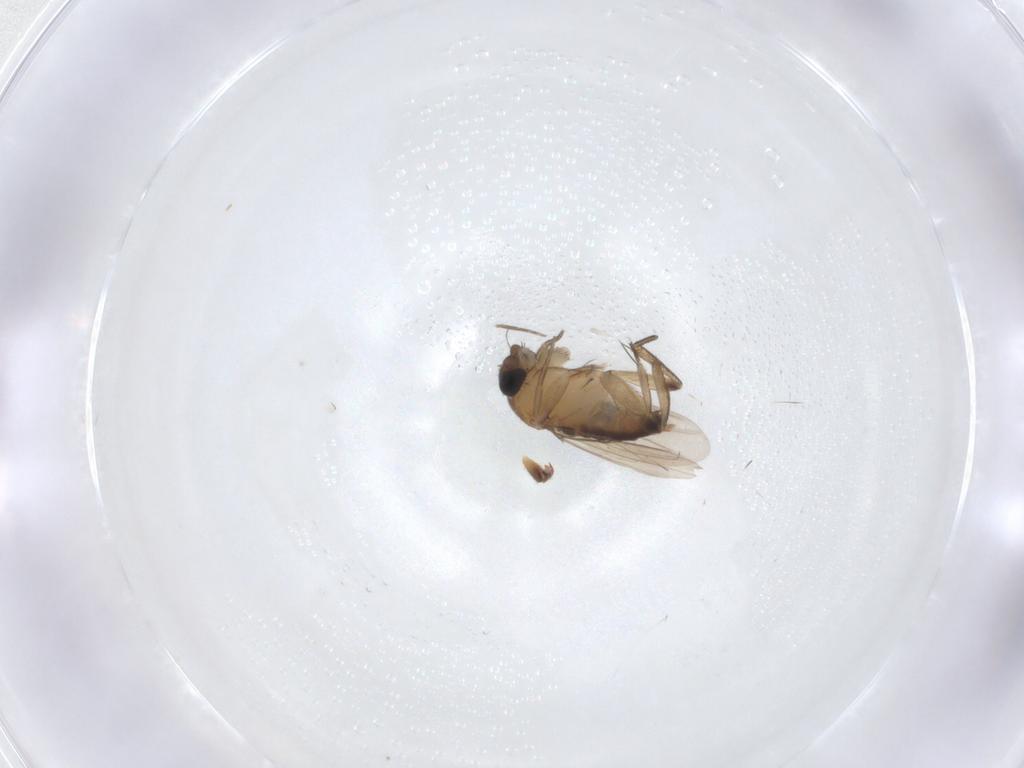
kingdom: Animalia
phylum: Arthropoda
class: Insecta
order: Diptera
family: Phoridae
